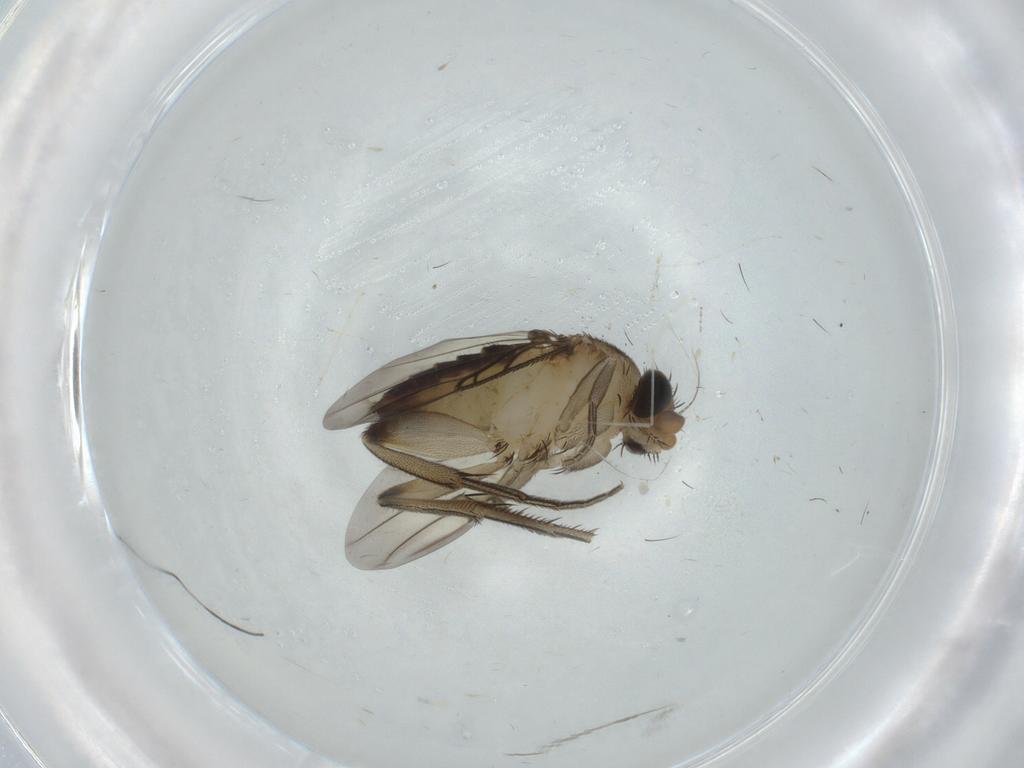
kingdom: Animalia
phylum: Arthropoda
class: Insecta
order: Diptera
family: Phoridae
